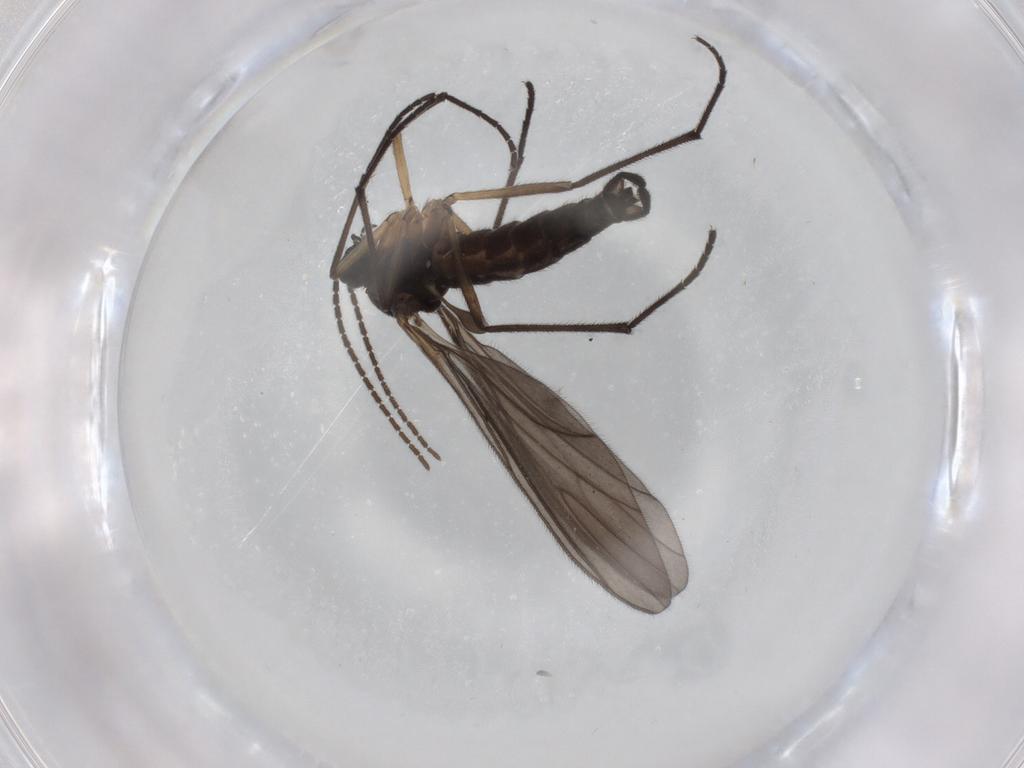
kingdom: Animalia
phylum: Arthropoda
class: Insecta
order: Diptera
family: Sciaridae
